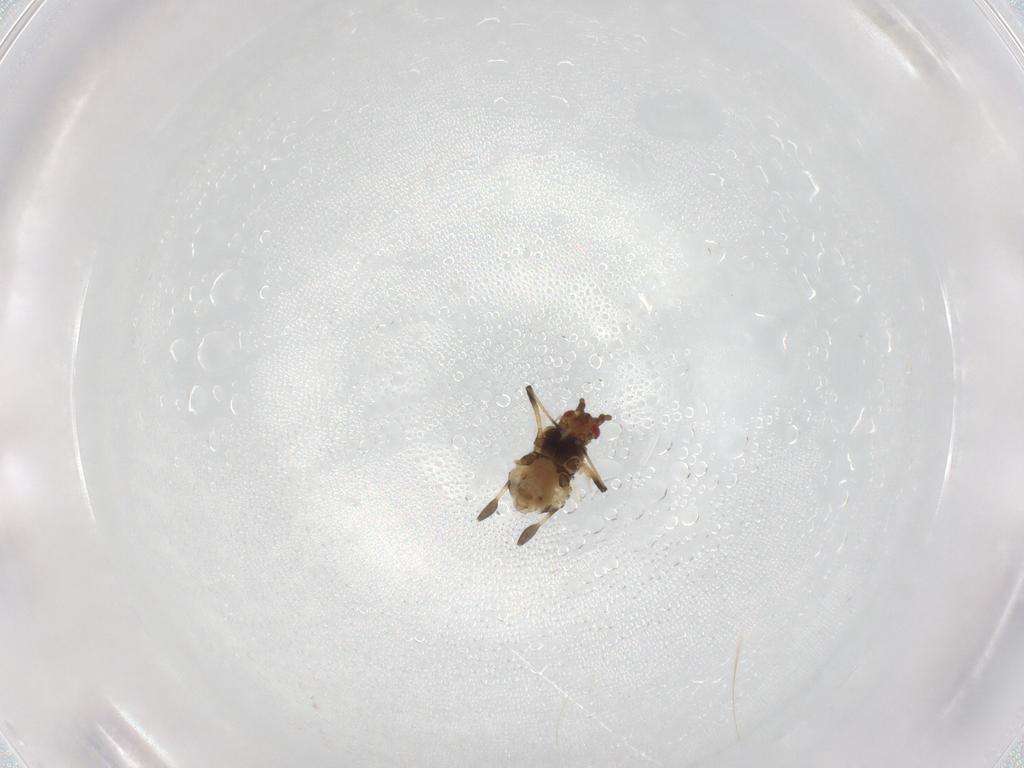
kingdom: Animalia
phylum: Arthropoda
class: Insecta
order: Hemiptera
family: Aphididae
